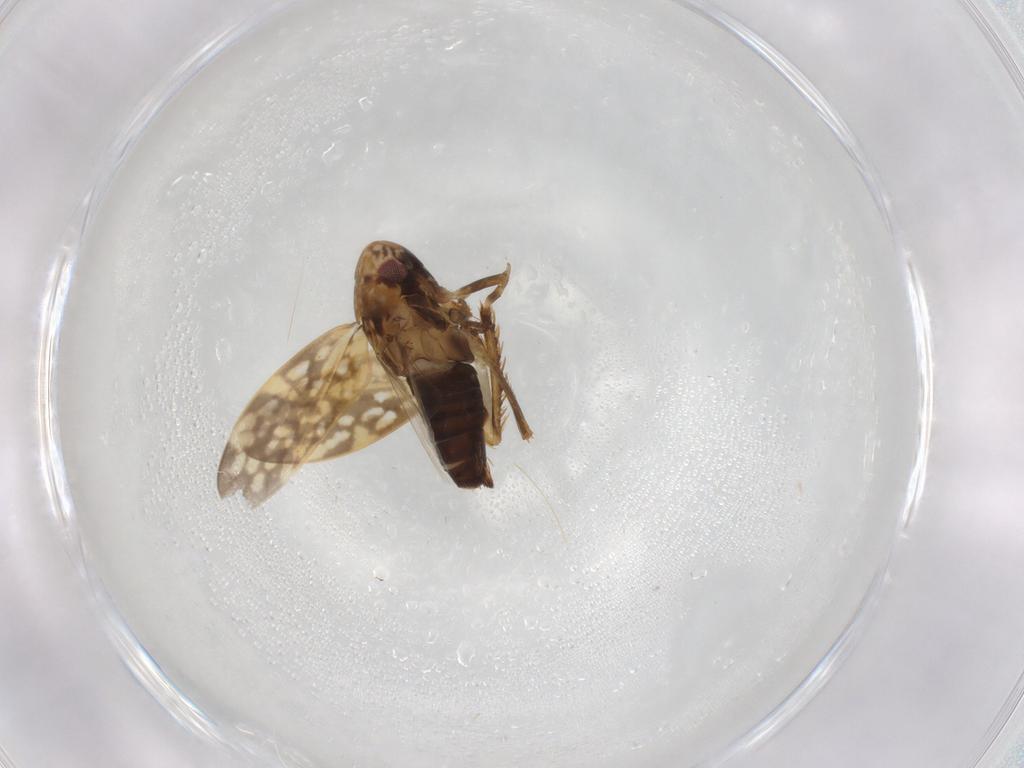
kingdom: Animalia
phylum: Arthropoda
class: Insecta
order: Hemiptera
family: Cicadellidae
